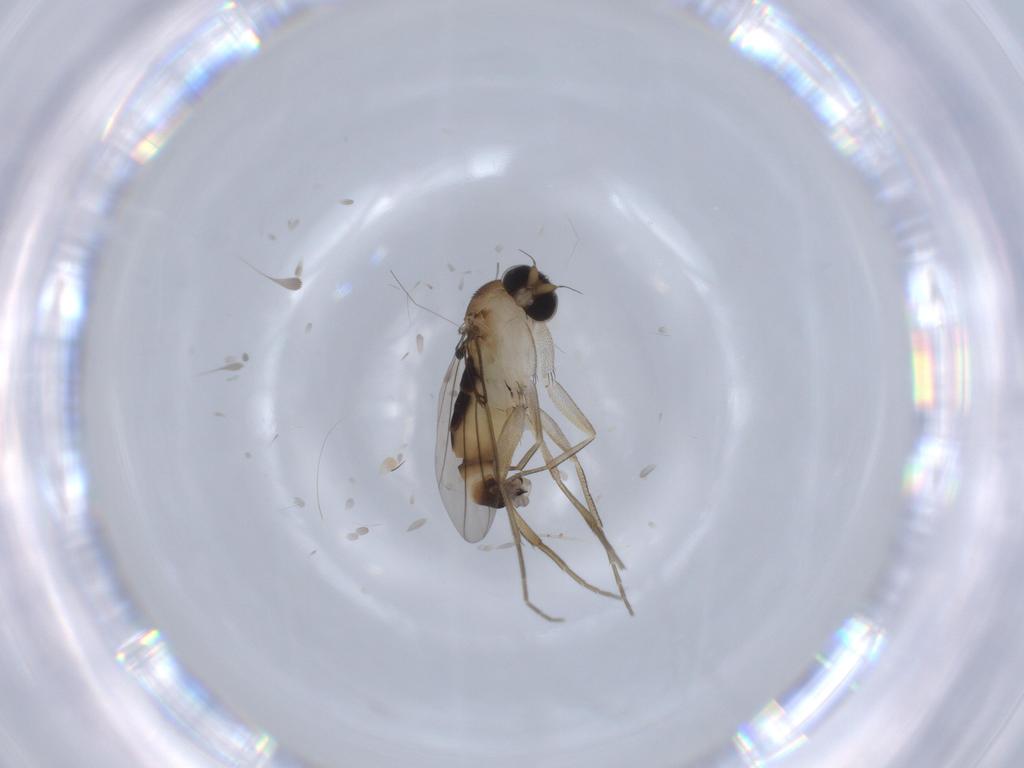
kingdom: Animalia
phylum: Arthropoda
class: Insecta
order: Diptera
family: Phoridae
